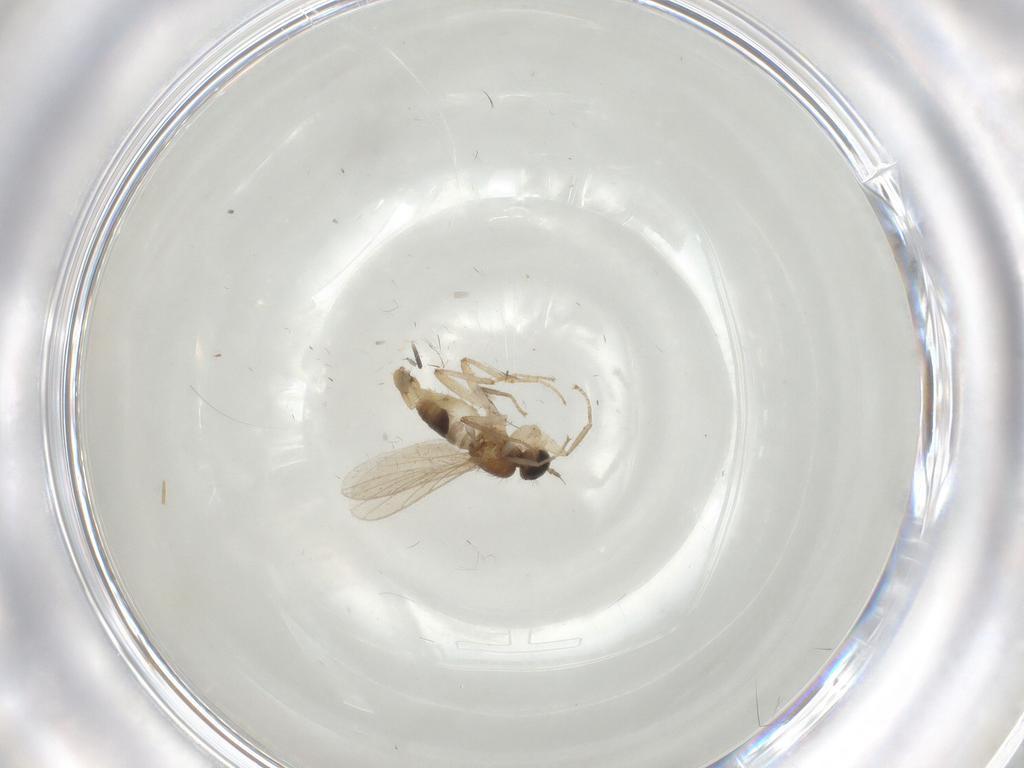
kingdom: Animalia
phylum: Arthropoda
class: Insecta
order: Diptera
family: Hybotidae
